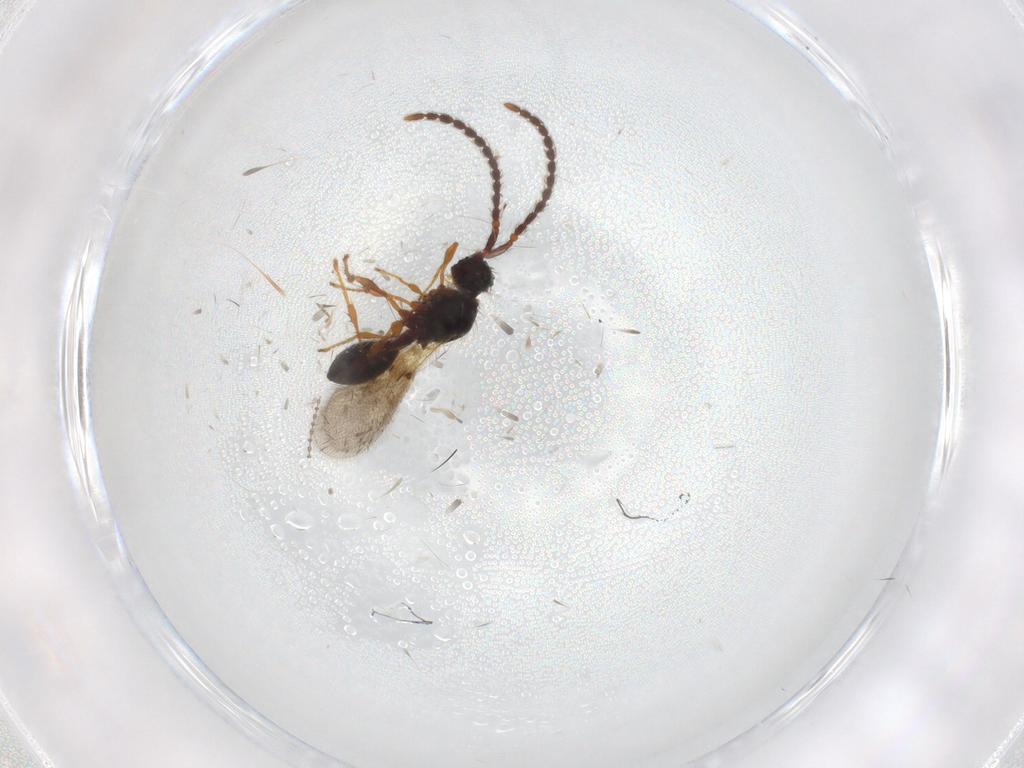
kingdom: Animalia
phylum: Arthropoda
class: Insecta
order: Hymenoptera
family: Diapriidae
